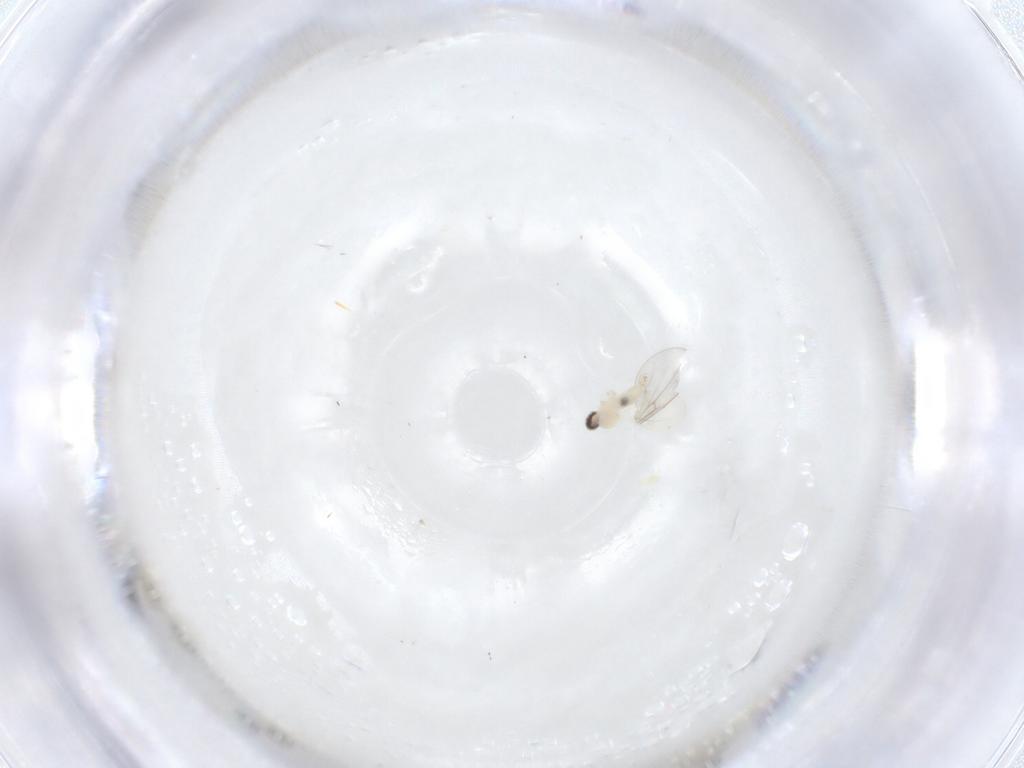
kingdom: Animalia
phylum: Arthropoda
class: Insecta
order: Diptera
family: Cecidomyiidae
